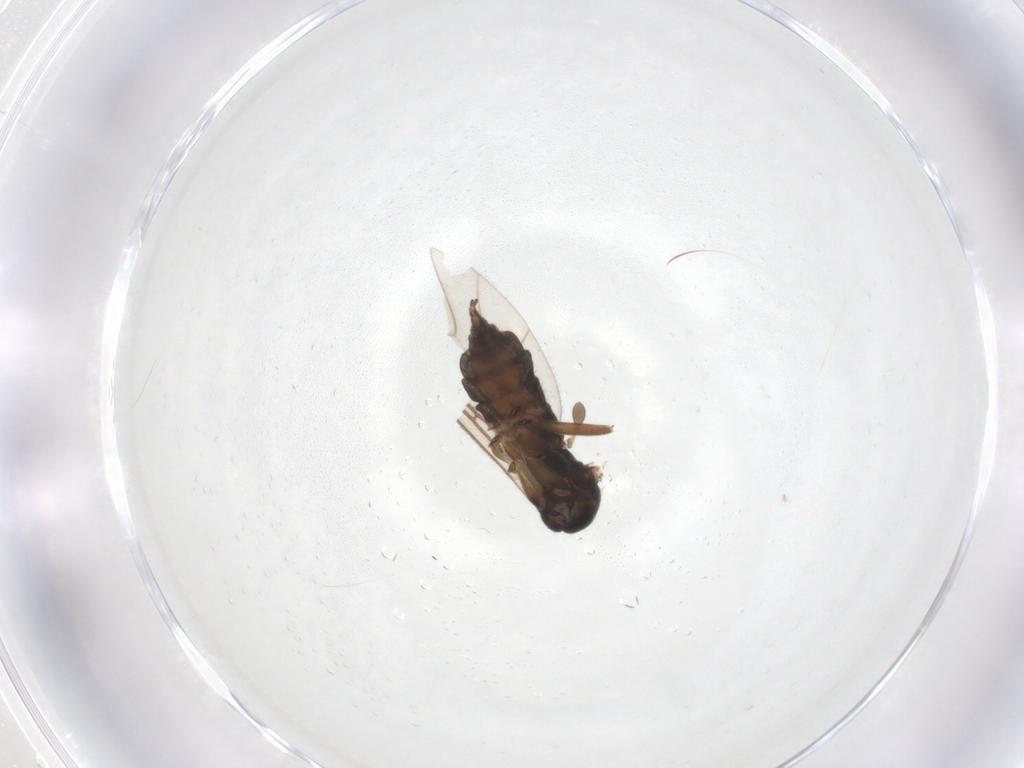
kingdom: Animalia
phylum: Arthropoda
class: Insecta
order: Diptera
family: Sciaridae
